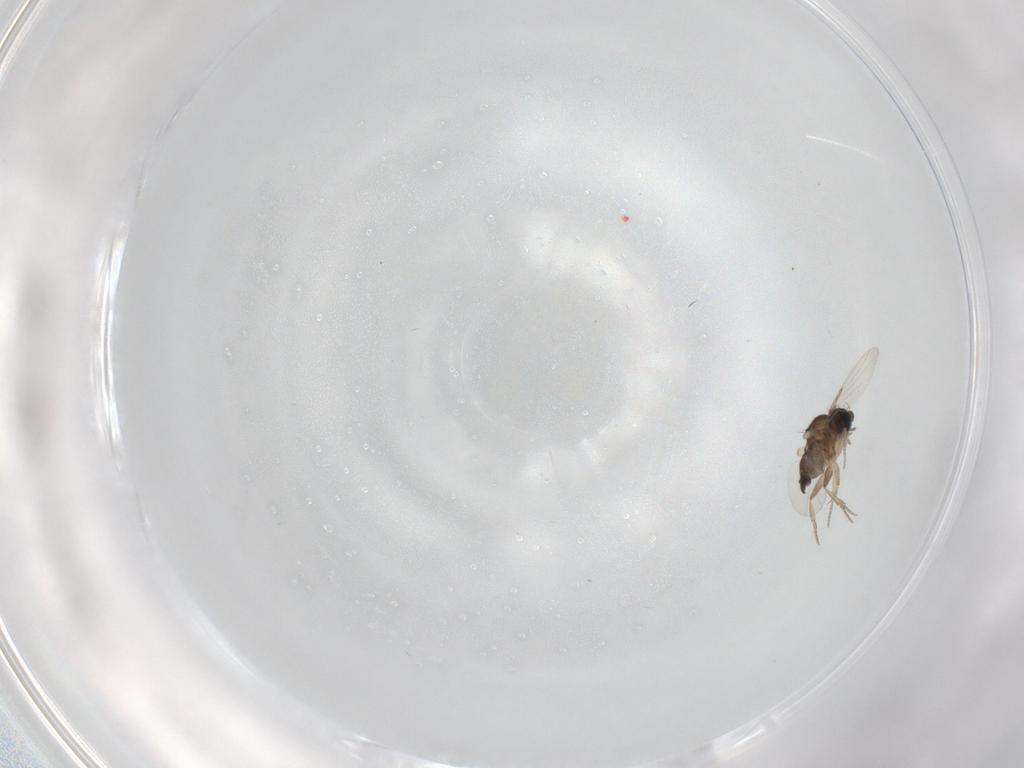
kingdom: Animalia
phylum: Arthropoda
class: Insecta
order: Diptera
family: Phoridae
